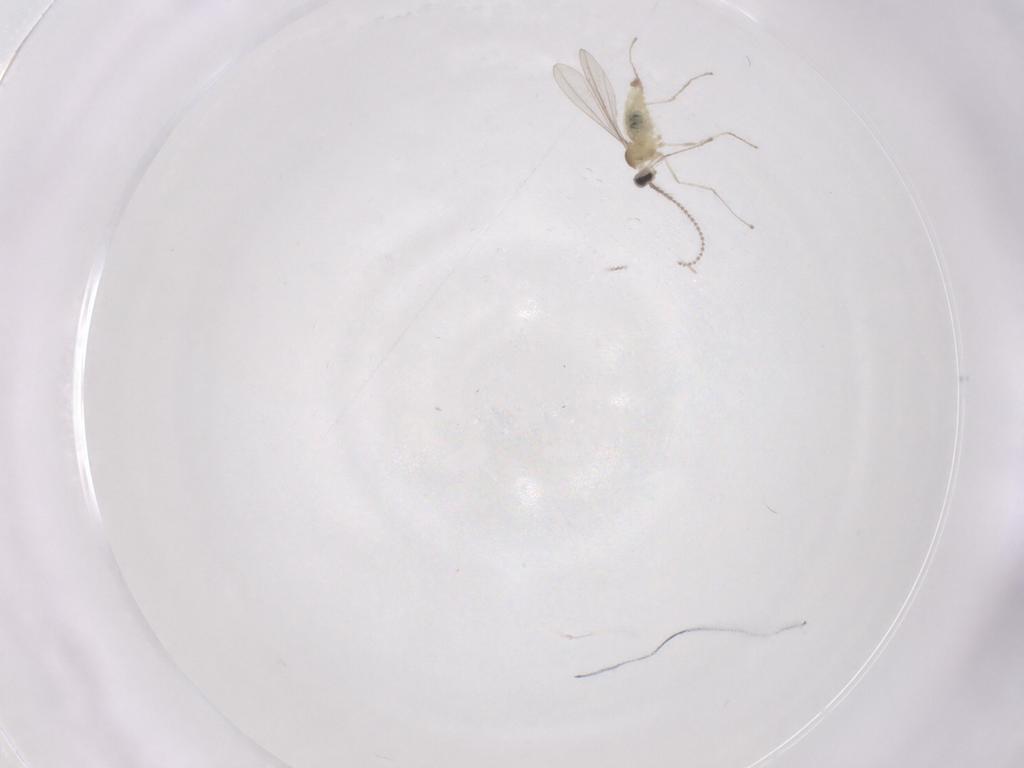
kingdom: Animalia
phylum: Arthropoda
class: Insecta
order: Diptera
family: Cecidomyiidae
